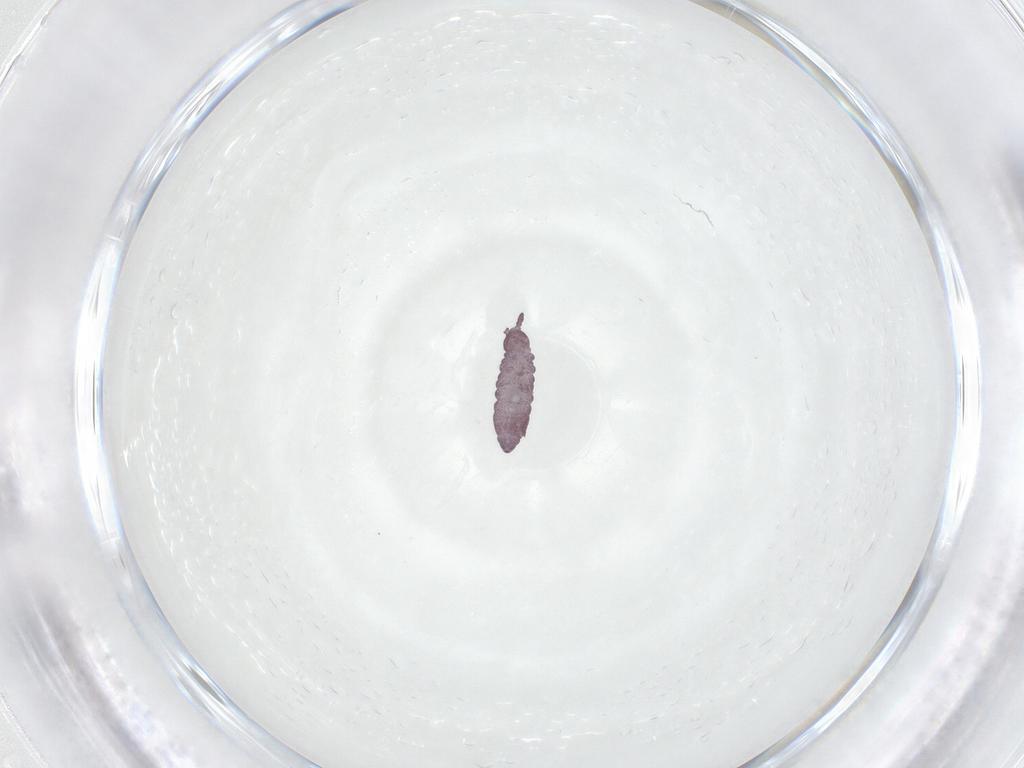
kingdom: Animalia
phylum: Arthropoda
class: Collembola
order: Poduromorpha
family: Hypogastruridae
